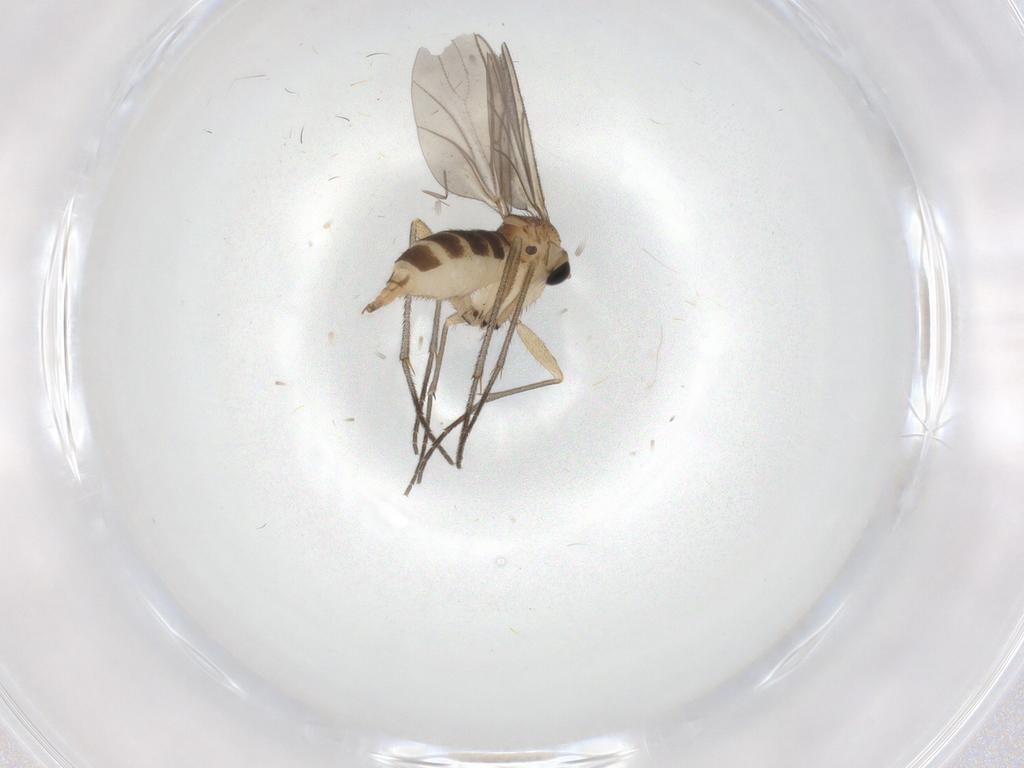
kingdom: Animalia
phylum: Arthropoda
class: Insecta
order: Diptera
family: Sciaridae
